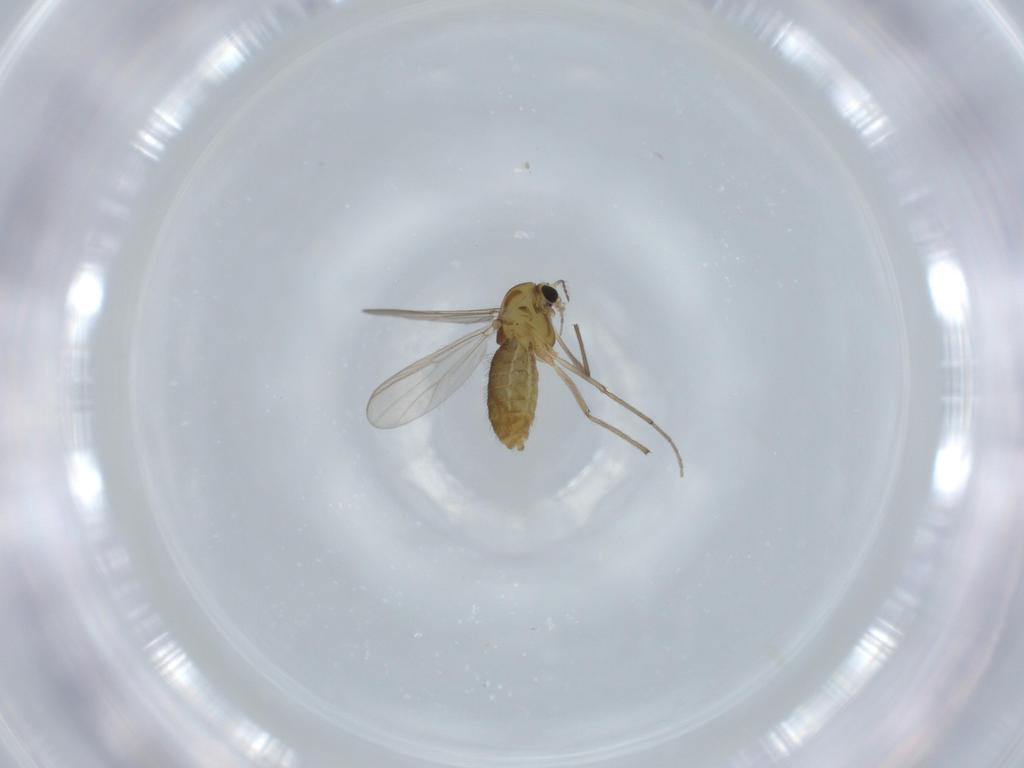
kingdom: Animalia
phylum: Arthropoda
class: Insecta
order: Diptera
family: Chironomidae
